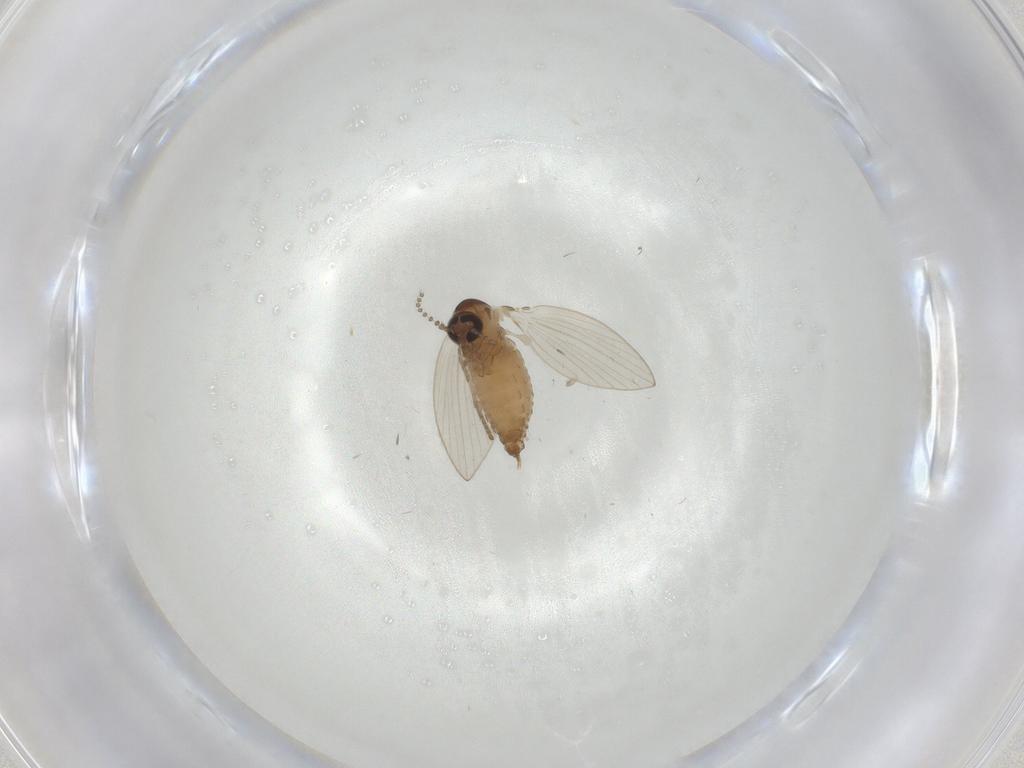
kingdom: Animalia
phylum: Arthropoda
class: Insecta
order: Diptera
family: Psychodidae
